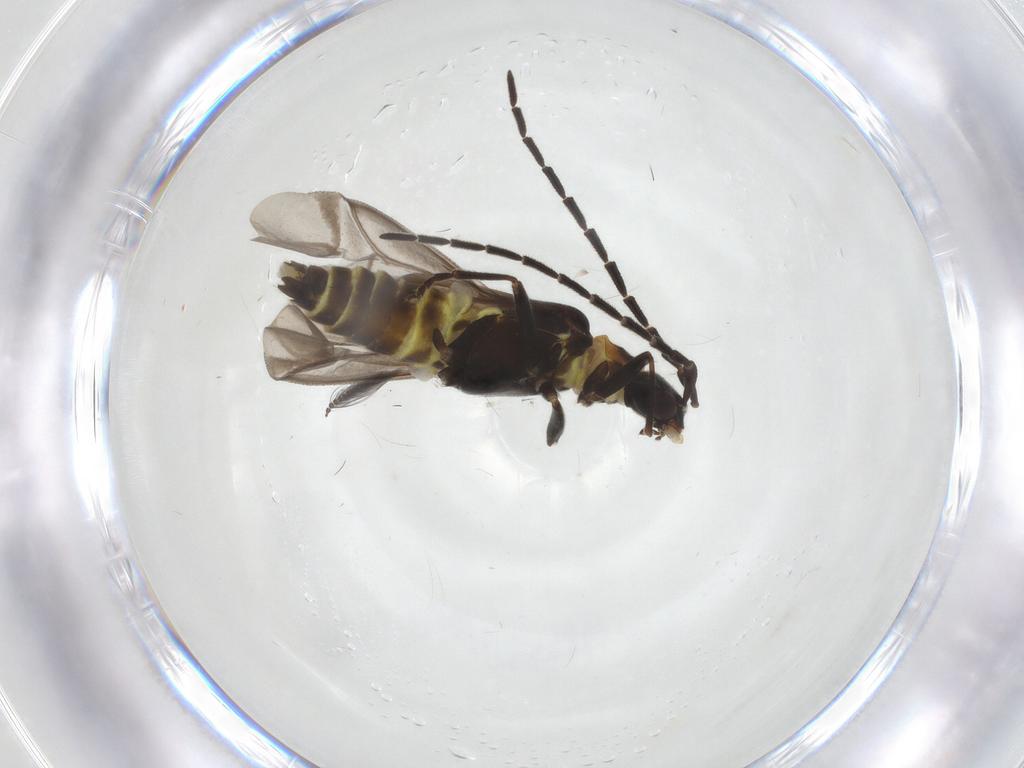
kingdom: Animalia
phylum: Arthropoda
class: Insecta
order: Coleoptera
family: Cantharidae
